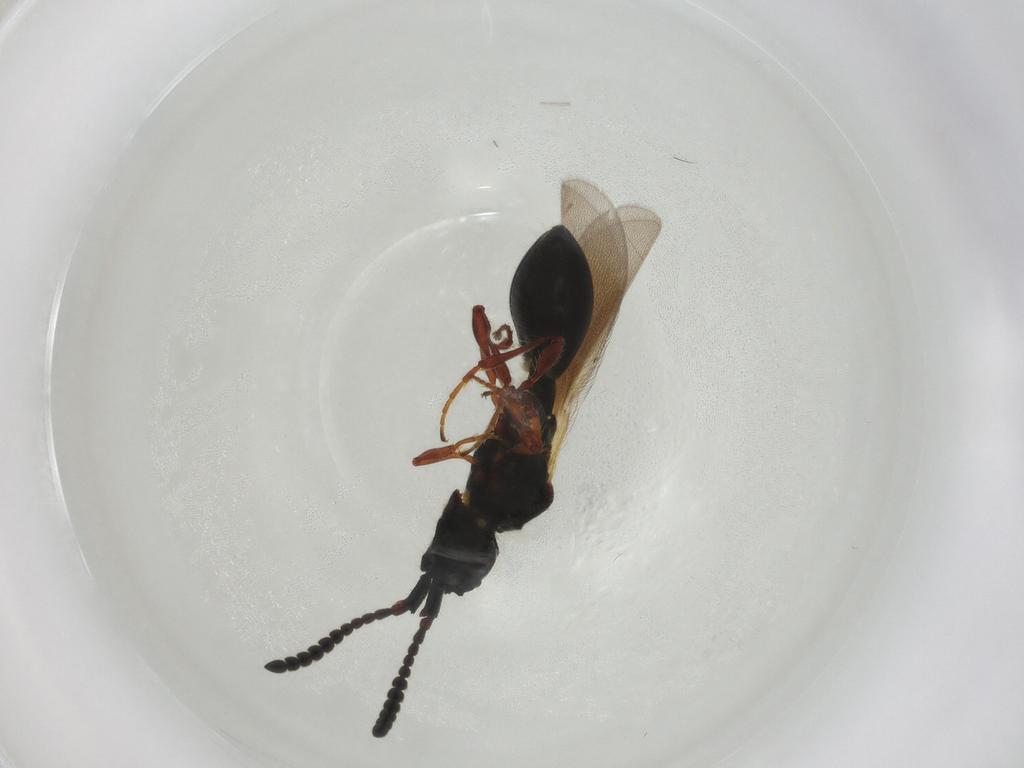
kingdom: Animalia
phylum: Arthropoda
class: Insecta
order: Hymenoptera
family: Diapriidae
